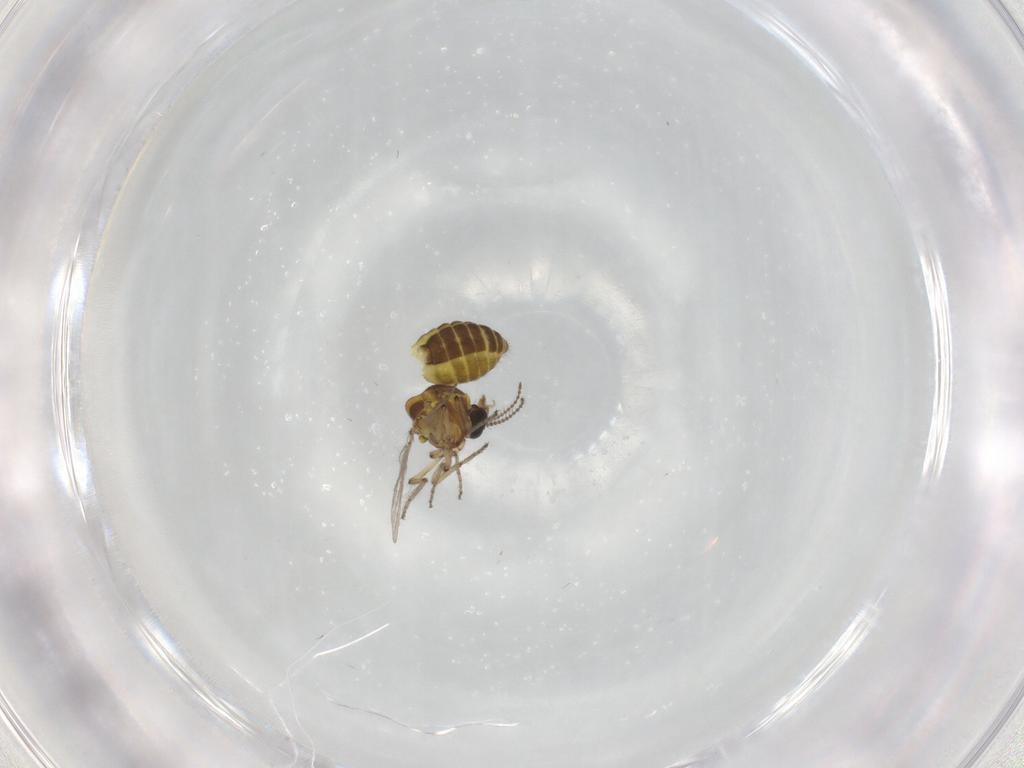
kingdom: Animalia
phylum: Arthropoda
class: Insecta
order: Diptera
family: Ceratopogonidae
